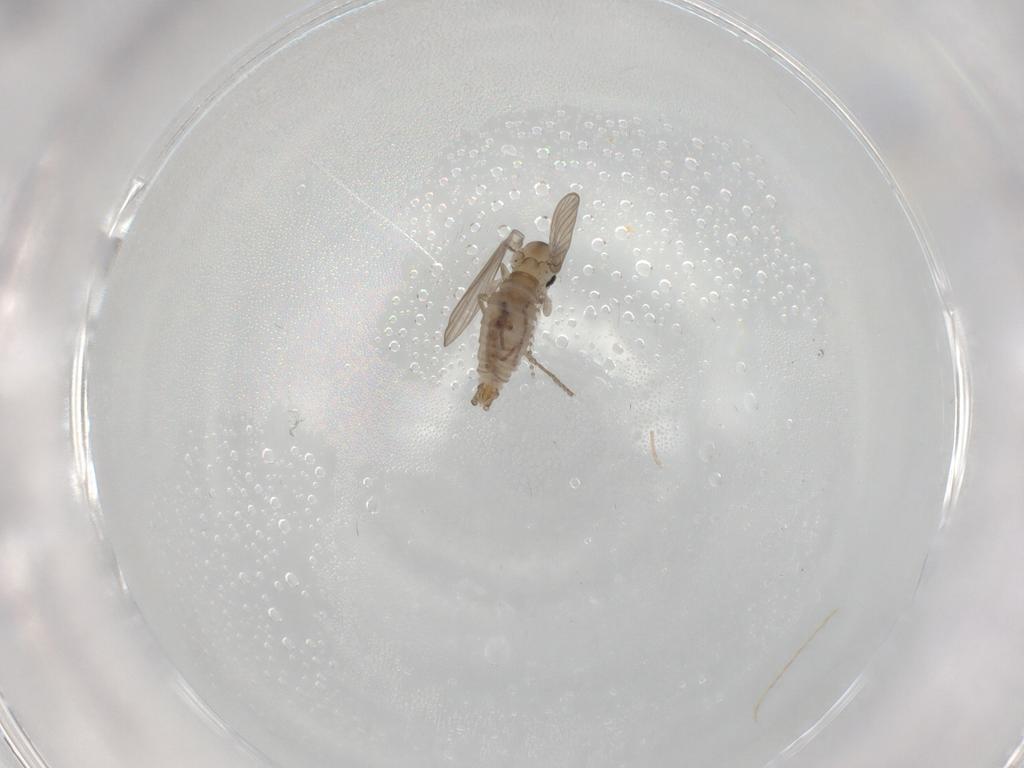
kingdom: Animalia
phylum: Arthropoda
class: Insecta
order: Diptera
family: Psychodidae
